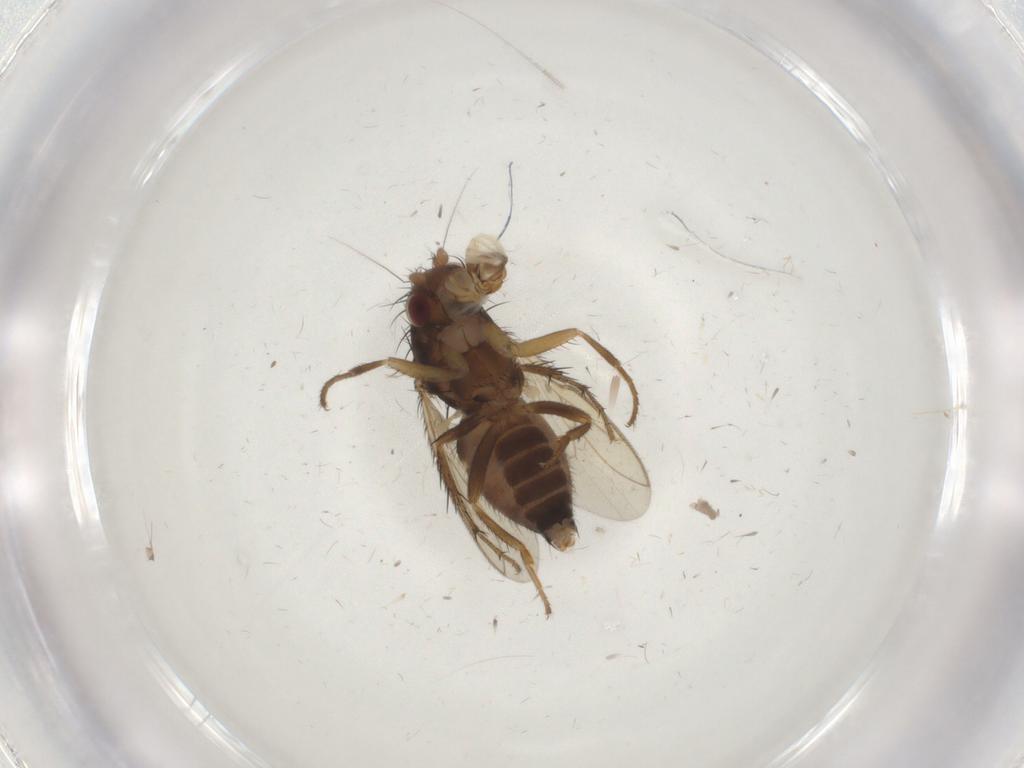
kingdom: Animalia
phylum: Arthropoda
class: Insecta
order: Diptera
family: Sphaeroceridae
